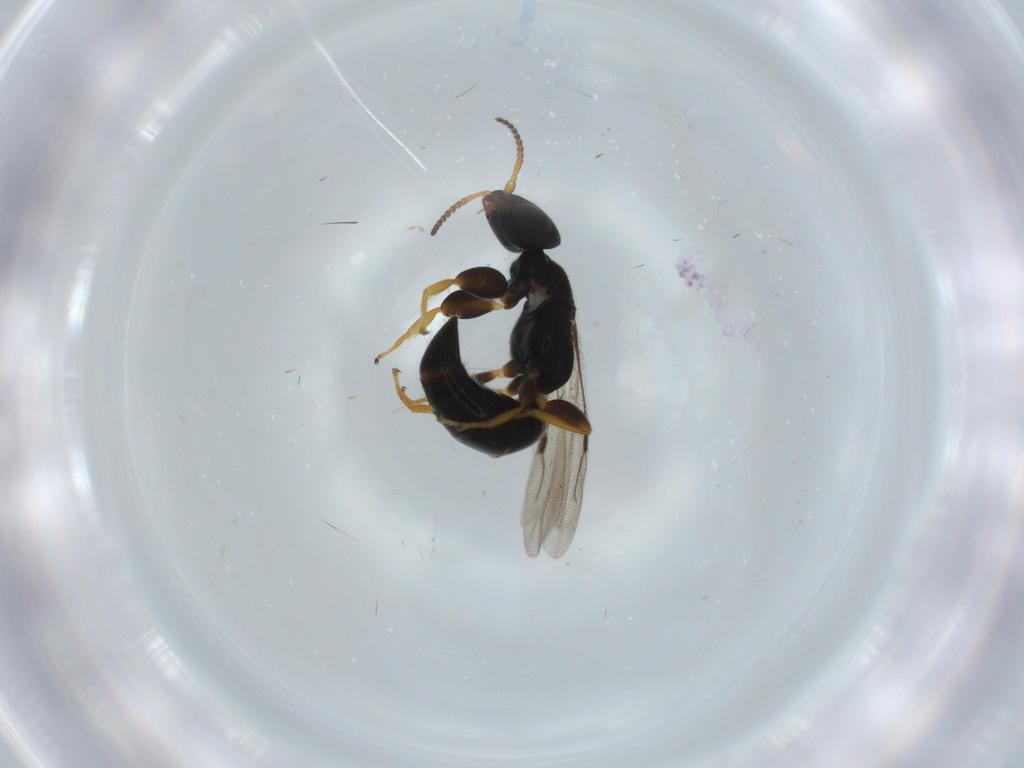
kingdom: Animalia
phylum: Arthropoda
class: Insecta
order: Hymenoptera
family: Bethylidae
